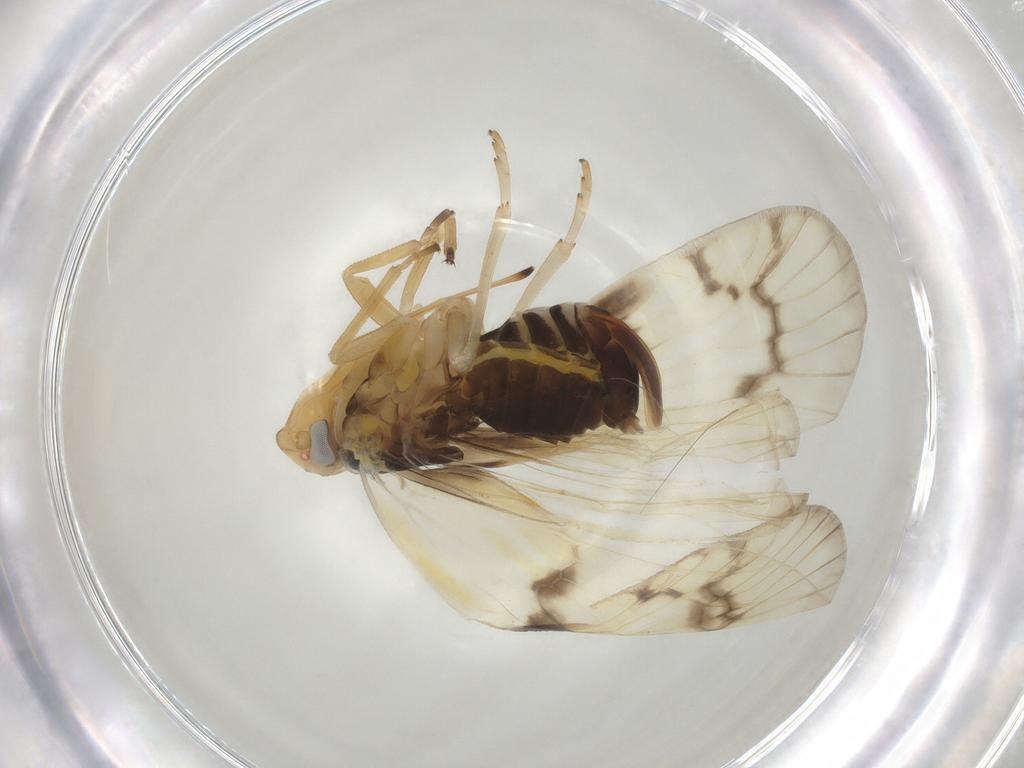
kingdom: Animalia
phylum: Arthropoda
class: Insecta
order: Hemiptera
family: Cixiidae
